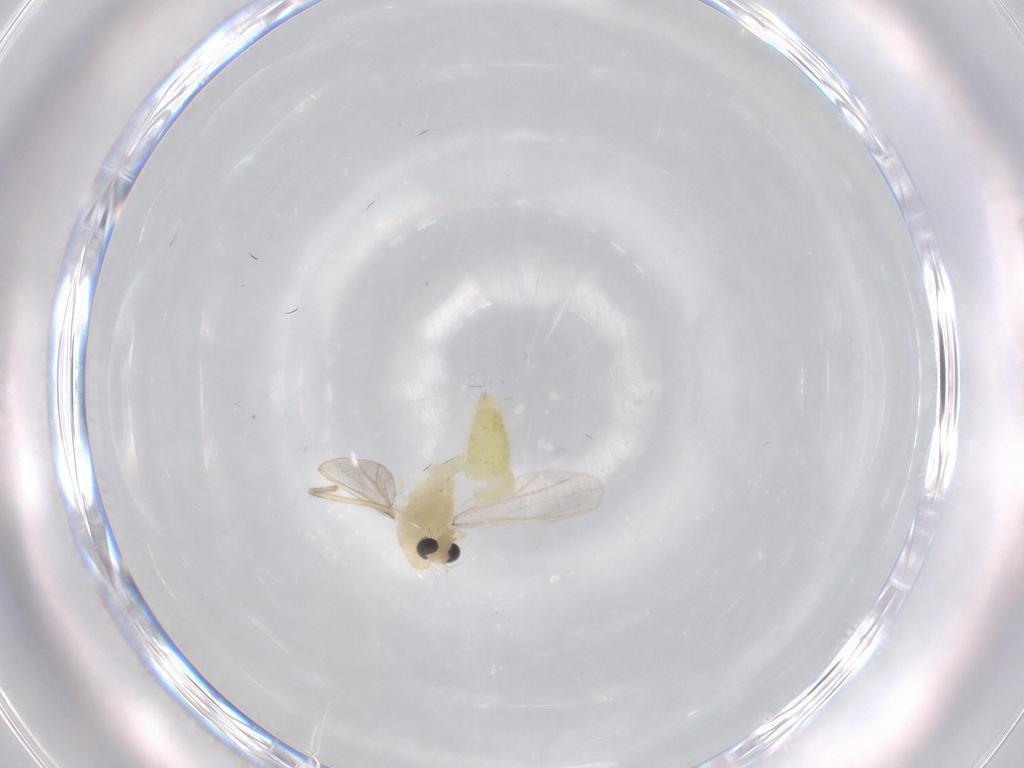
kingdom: Animalia
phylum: Arthropoda
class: Insecta
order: Diptera
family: Chironomidae
